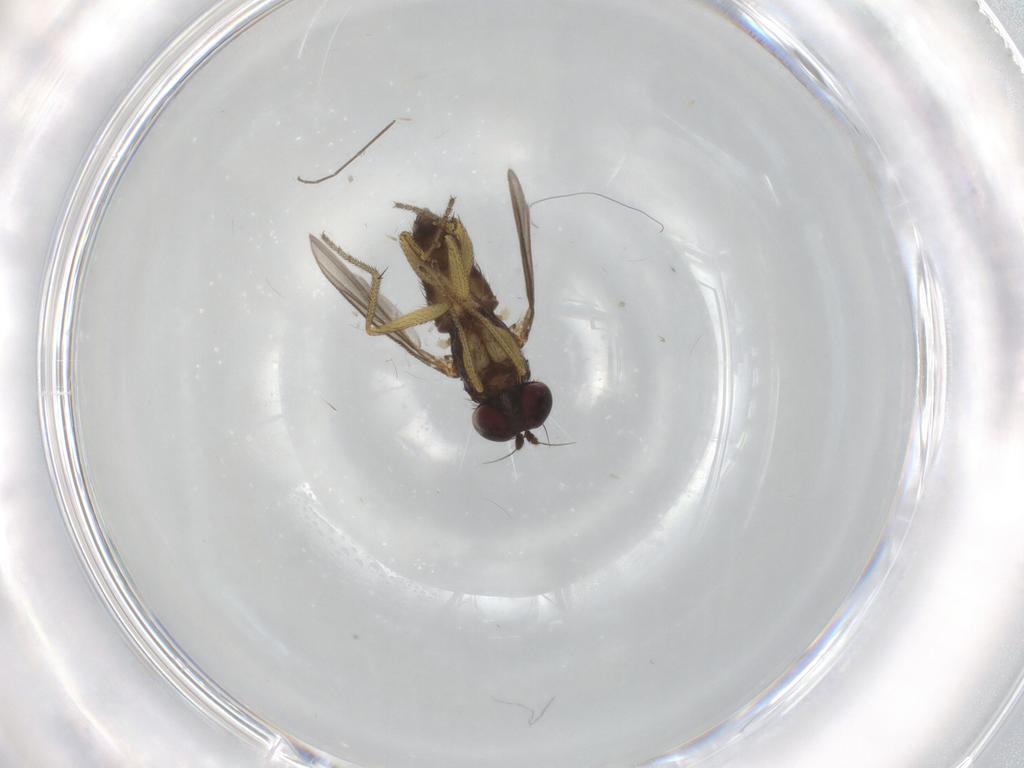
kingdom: Animalia
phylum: Arthropoda
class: Insecta
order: Diptera
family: Dolichopodidae
